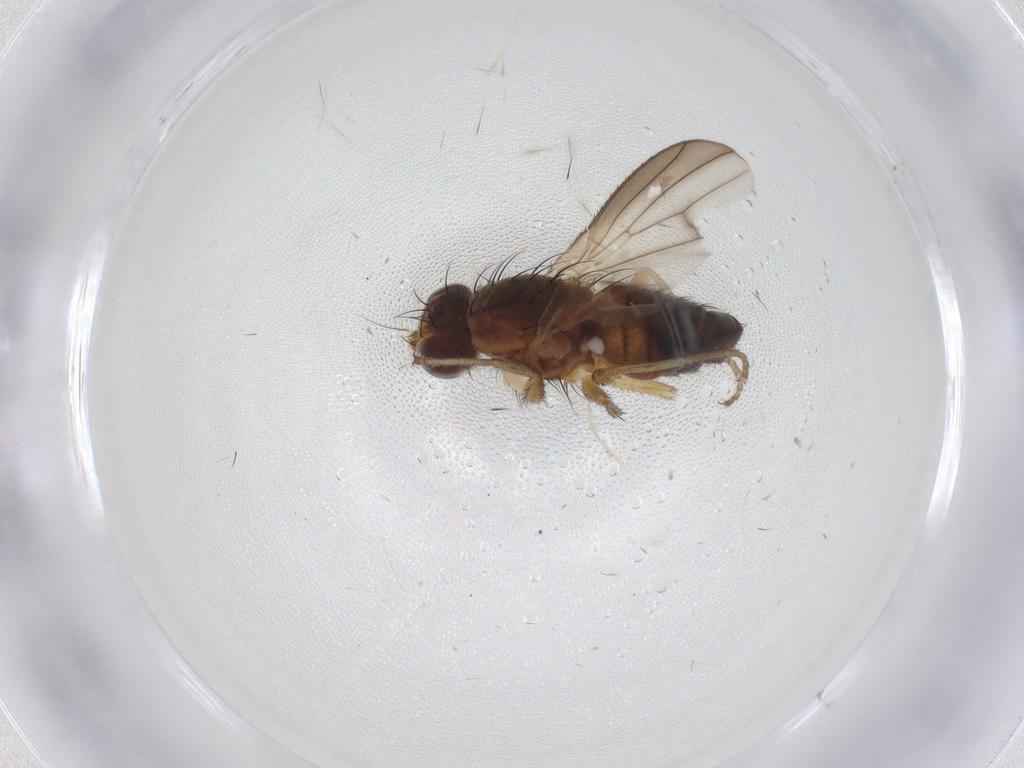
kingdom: Animalia
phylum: Arthropoda
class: Insecta
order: Diptera
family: Heleomyzidae
